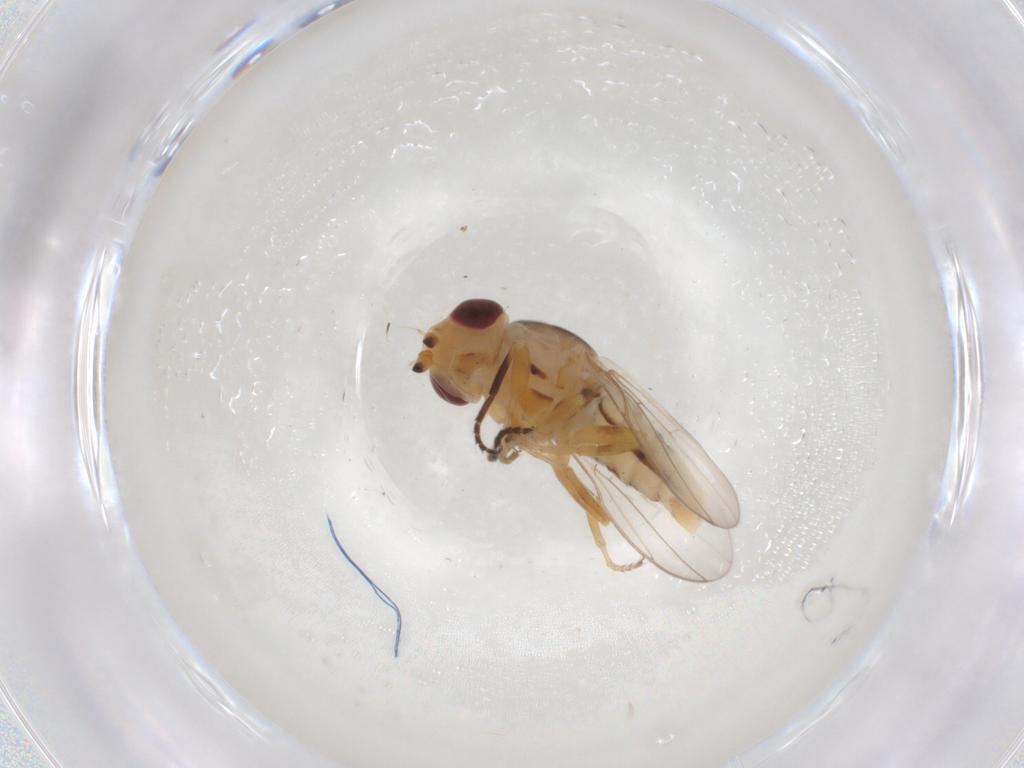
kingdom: Animalia
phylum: Arthropoda
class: Insecta
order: Diptera
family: Chloropidae
